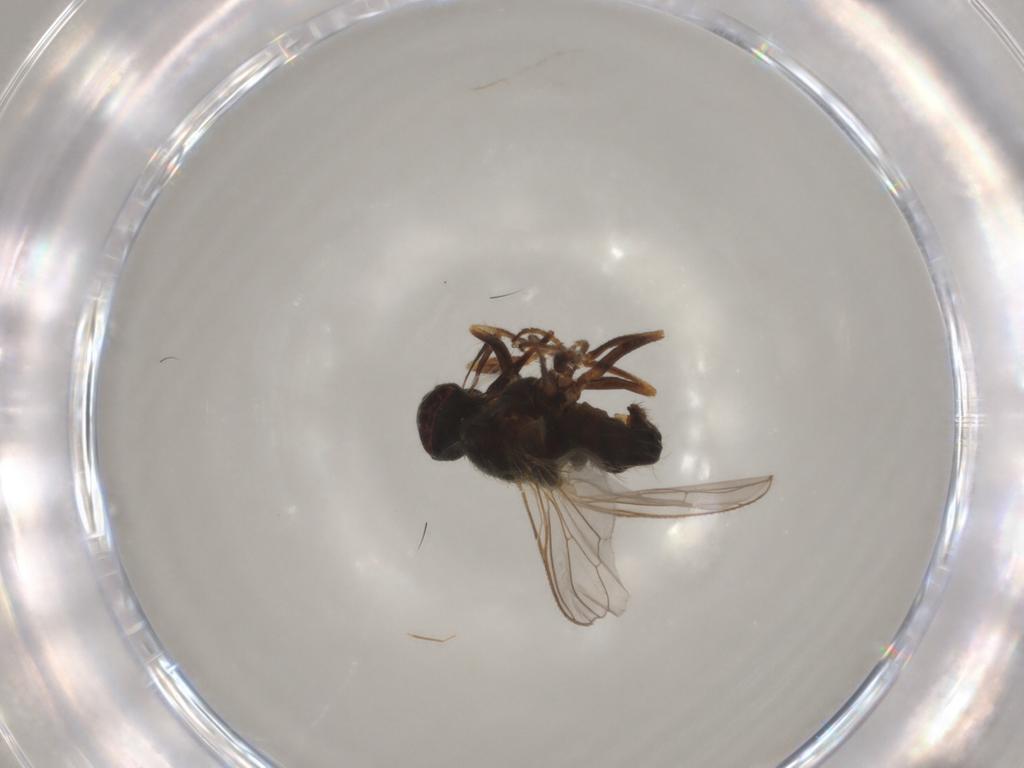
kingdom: Animalia
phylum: Arthropoda
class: Insecta
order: Diptera
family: Muscidae
